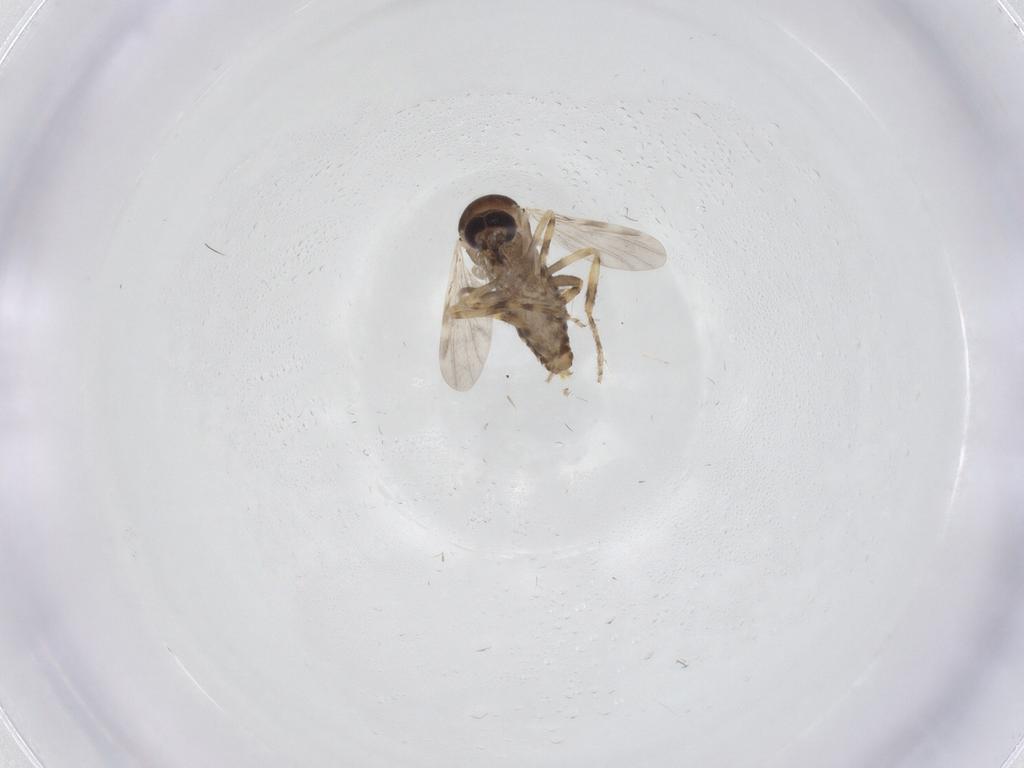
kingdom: Animalia
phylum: Arthropoda
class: Insecta
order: Diptera
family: Ceratopogonidae
